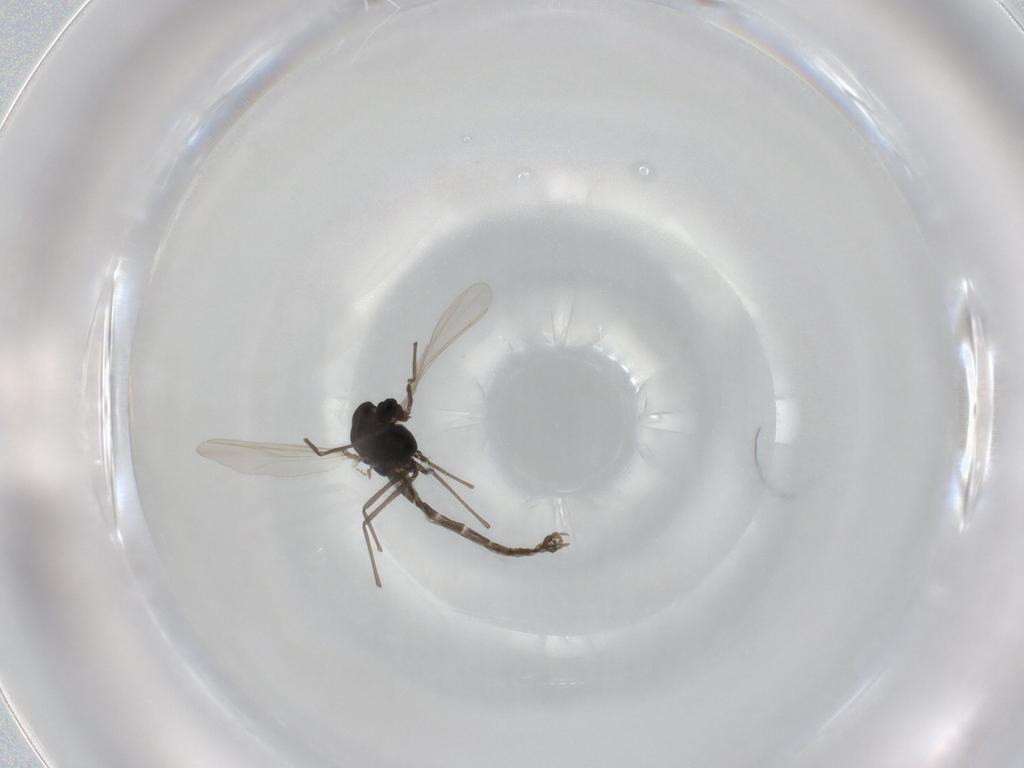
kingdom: Animalia
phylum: Arthropoda
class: Insecta
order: Diptera
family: Chironomidae
